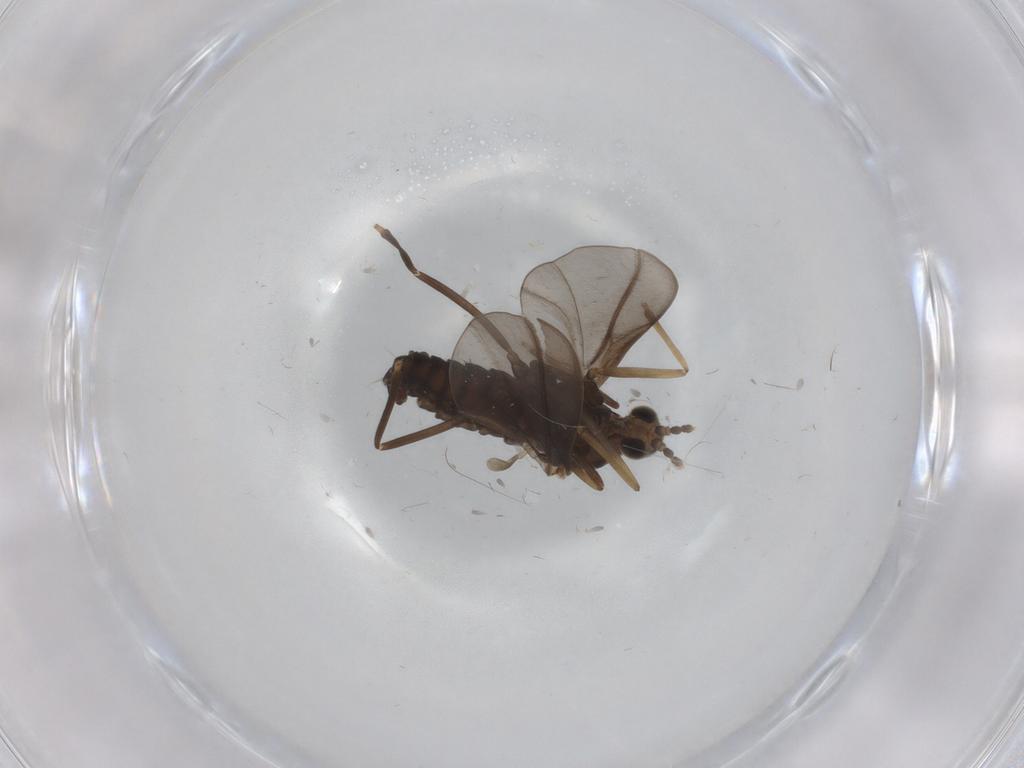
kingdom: Animalia
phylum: Arthropoda
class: Insecta
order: Diptera
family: Cecidomyiidae
